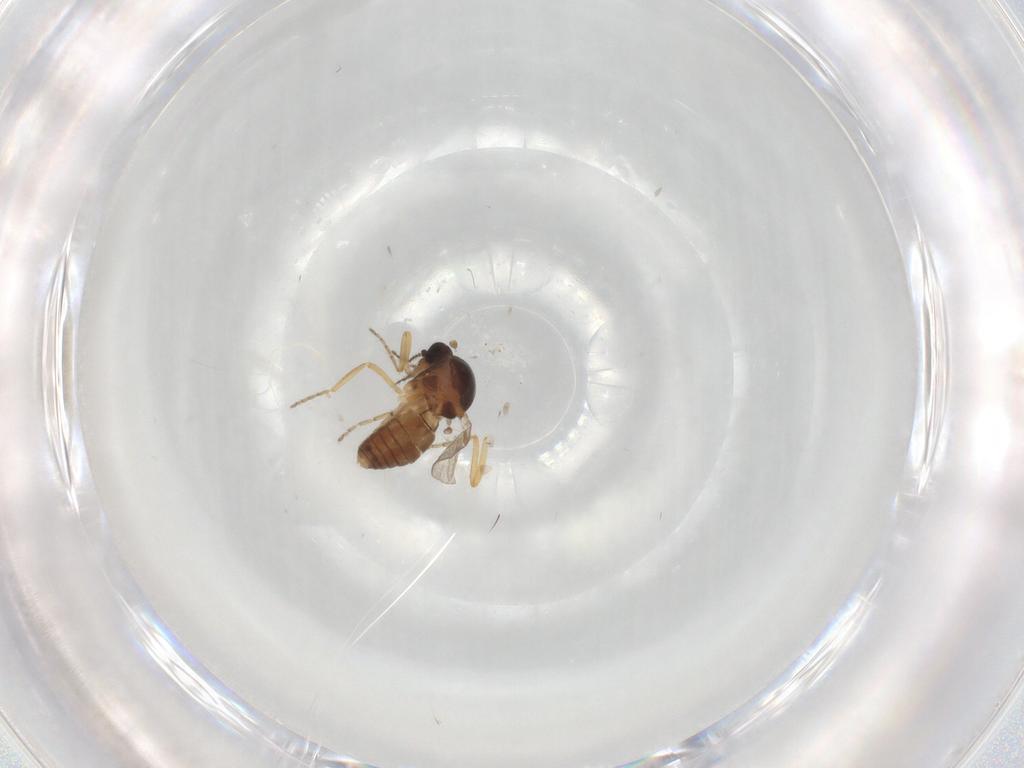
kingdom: Animalia
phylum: Arthropoda
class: Insecta
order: Diptera
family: Ceratopogonidae
